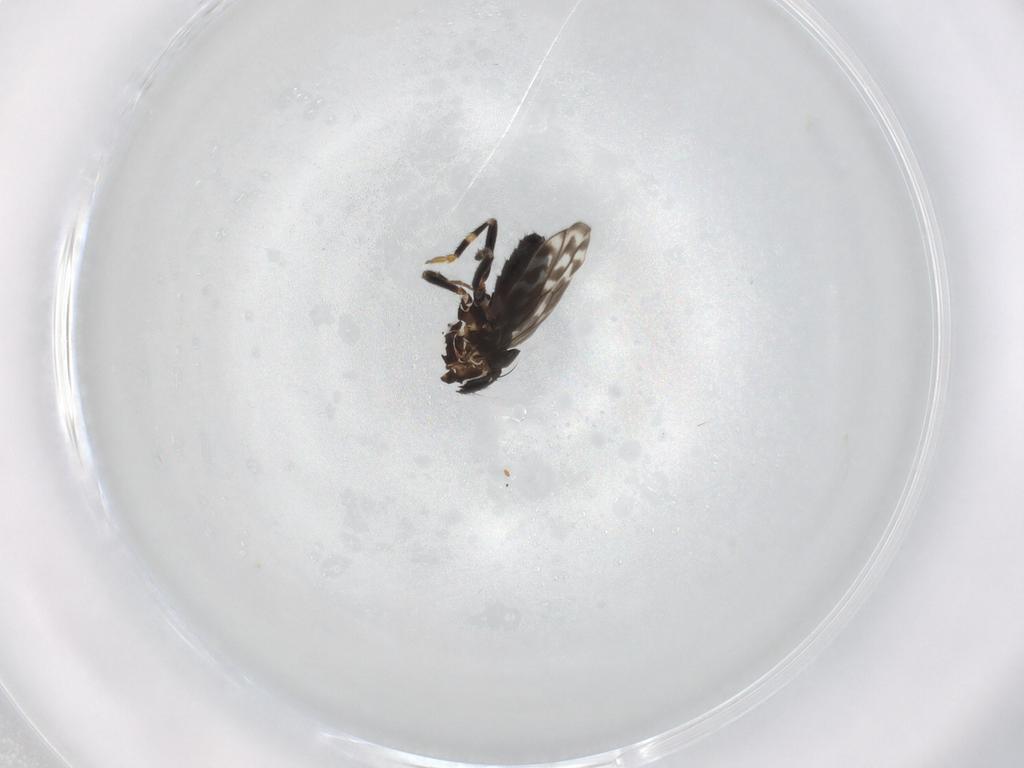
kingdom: Animalia
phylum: Arthropoda
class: Insecta
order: Diptera
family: Sphaeroceridae
